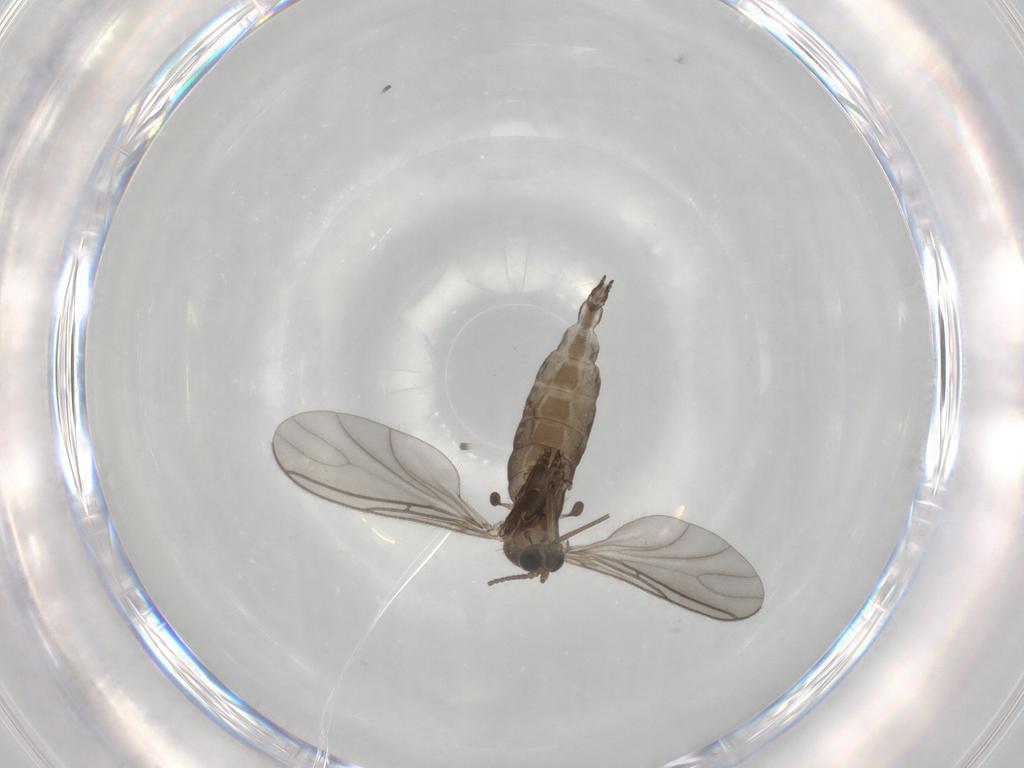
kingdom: Animalia
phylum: Arthropoda
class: Insecta
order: Diptera
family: Sciaridae
